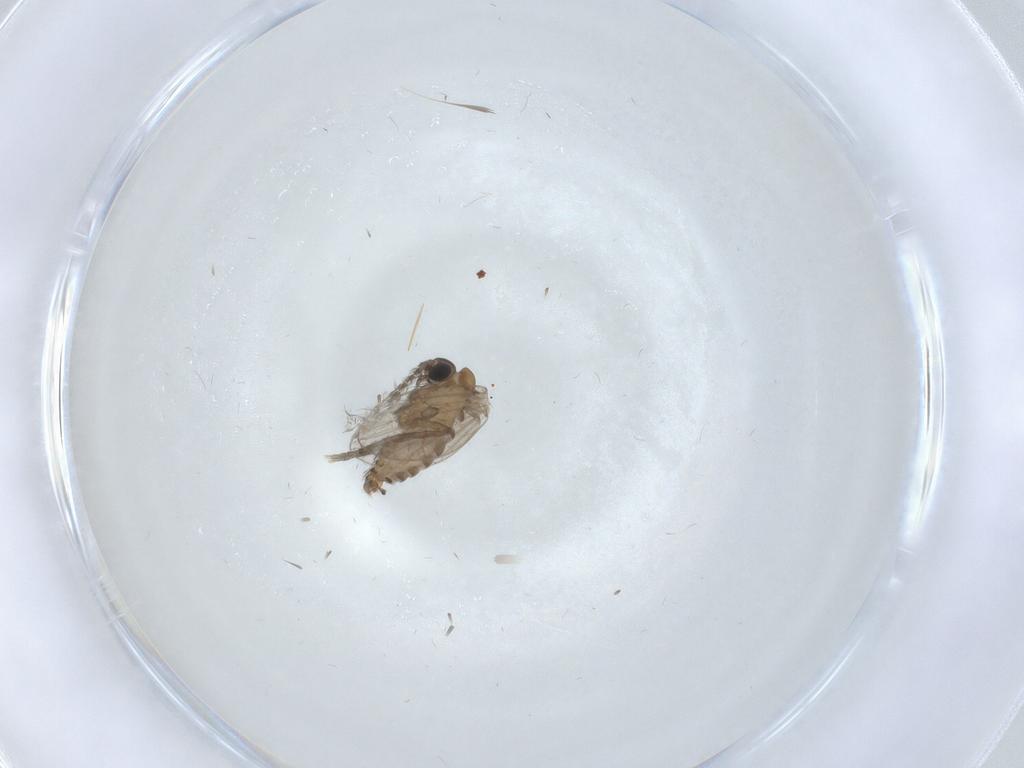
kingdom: Animalia
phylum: Arthropoda
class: Insecta
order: Diptera
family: Psychodidae
